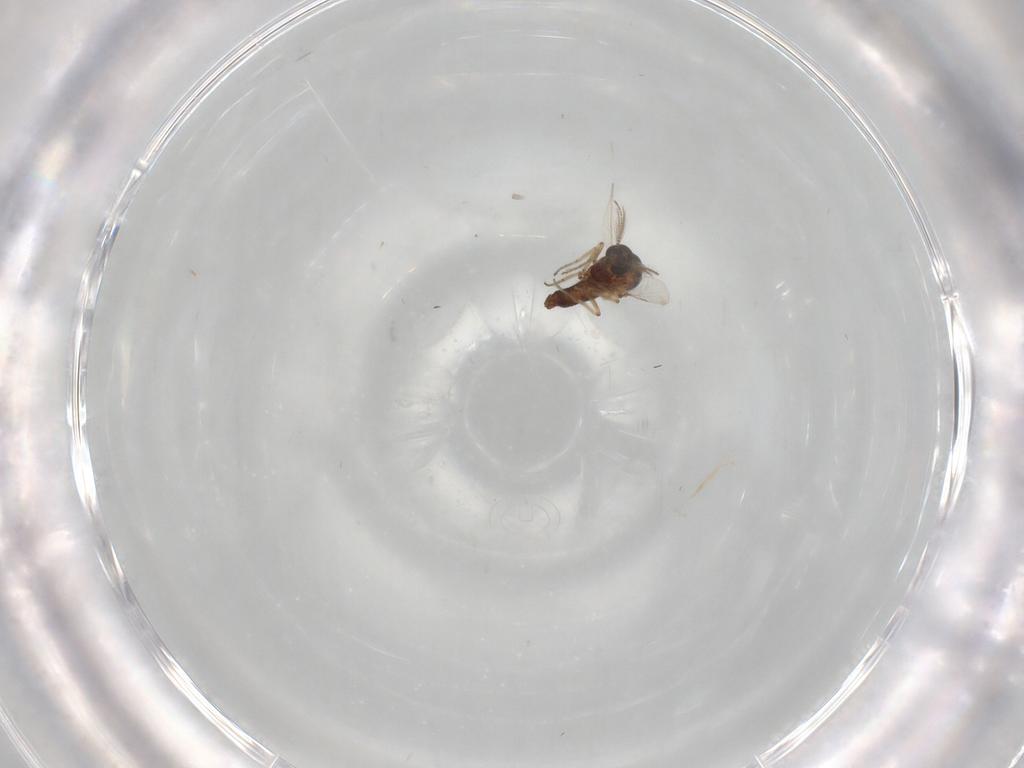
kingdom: Animalia
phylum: Arthropoda
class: Insecta
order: Diptera
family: Ceratopogonidae
